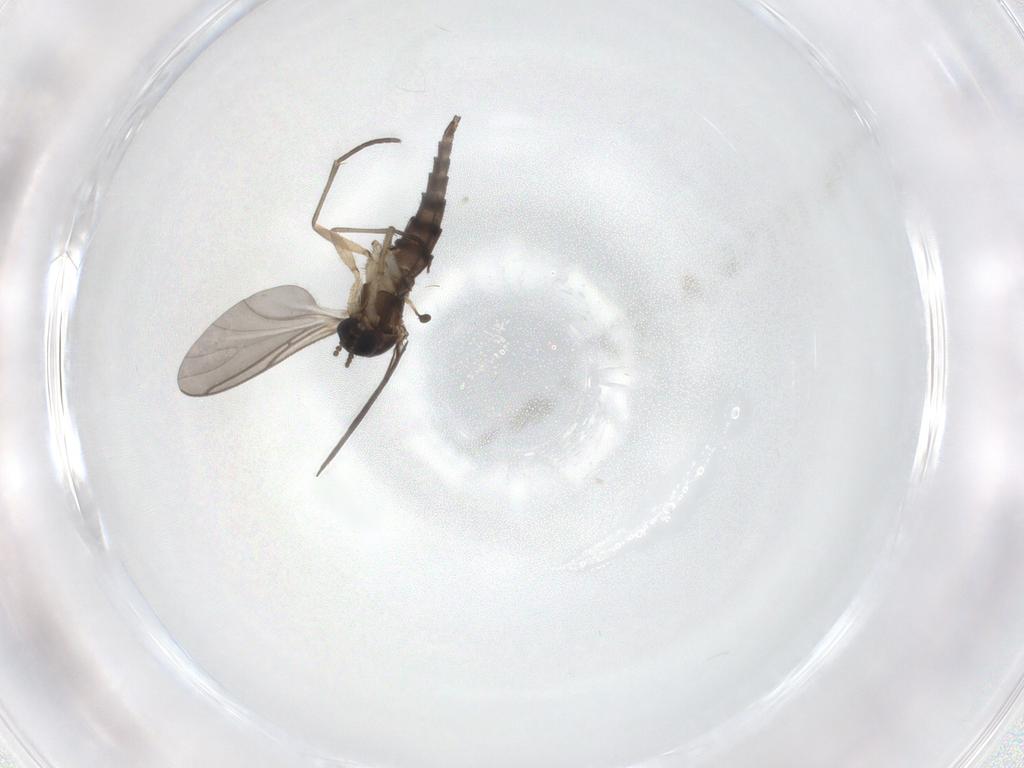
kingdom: Animalia
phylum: Arthropoda
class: Insecta
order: Diptera
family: Sciaridae
